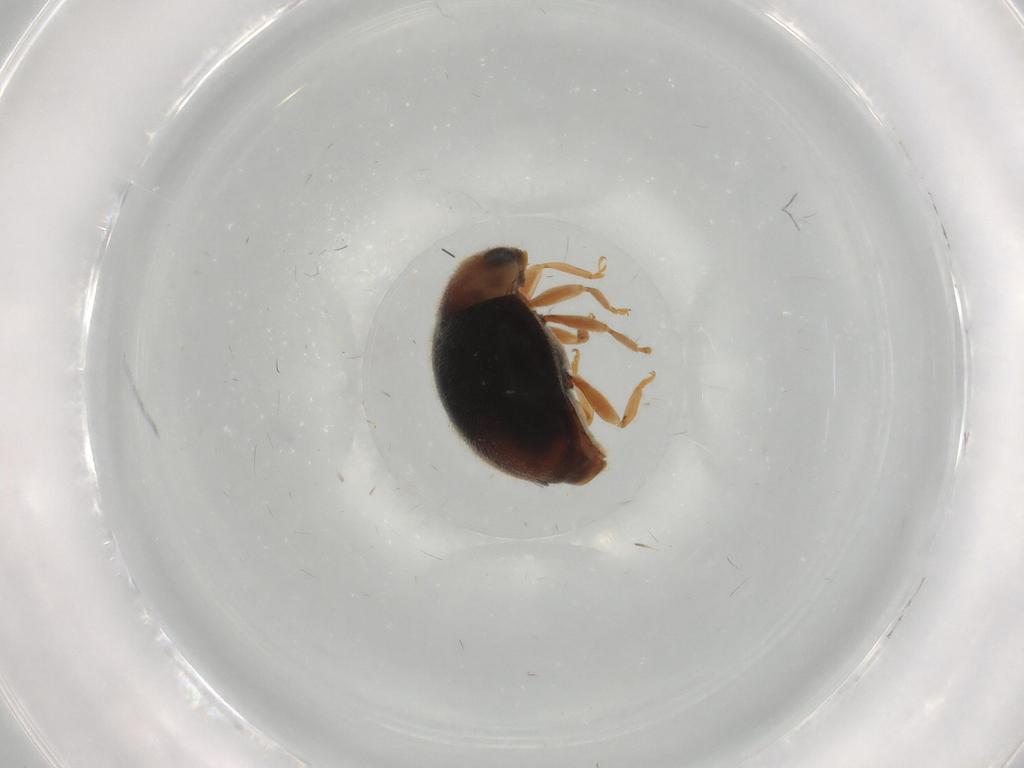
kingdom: Animalia
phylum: Arthropoda
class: Insecta
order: Coleoptera
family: Coccinellidae
